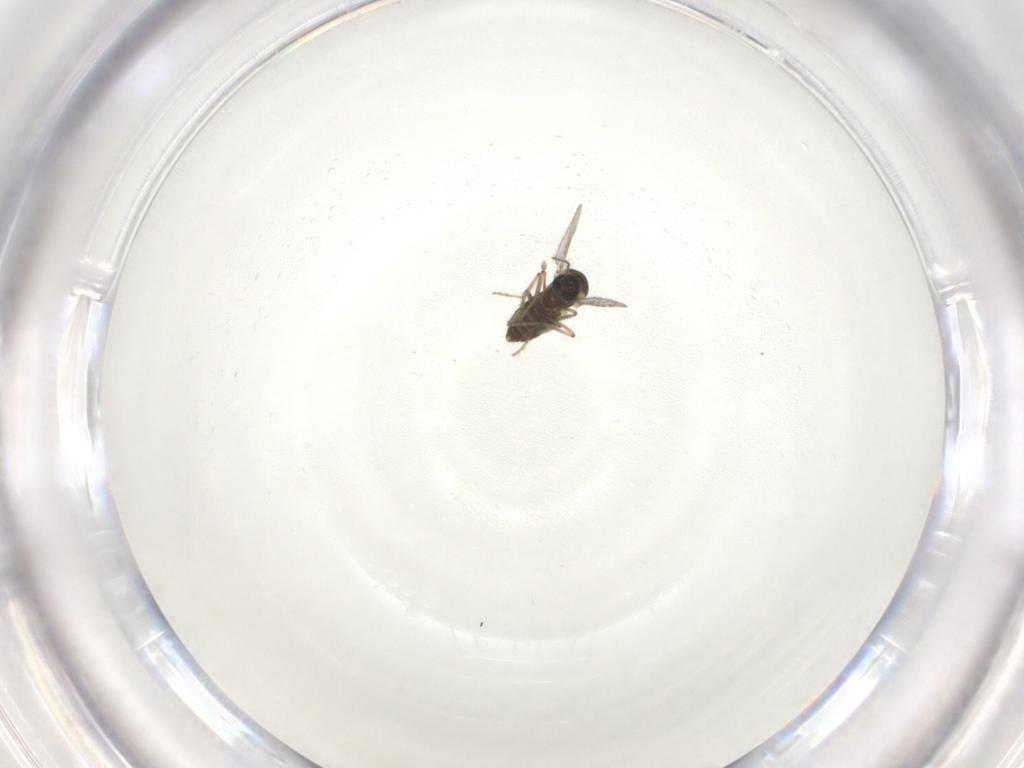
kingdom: Animalia
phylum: Arthropoda
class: Insecta
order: Diptera
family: Ceratopogonidae
